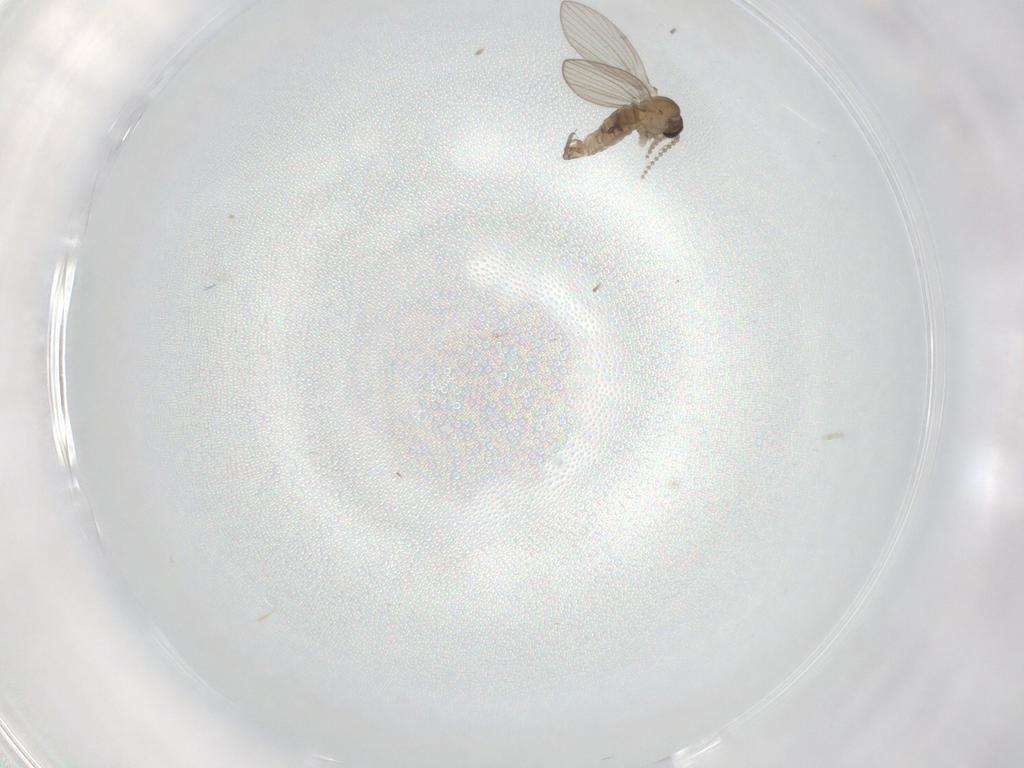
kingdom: Animalia
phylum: Arthropoda
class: Insecta
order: Diptera
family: Psychodidae
